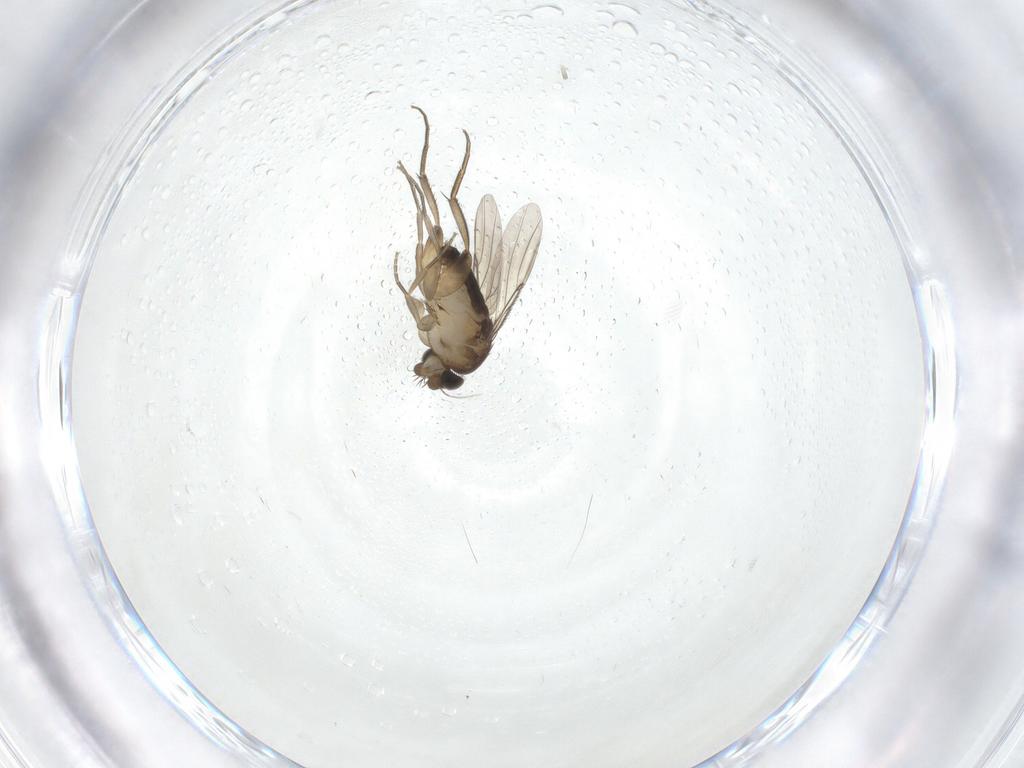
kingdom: Animalia
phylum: Arthropoda
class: Insecta
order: Diptera
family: Phoridae
